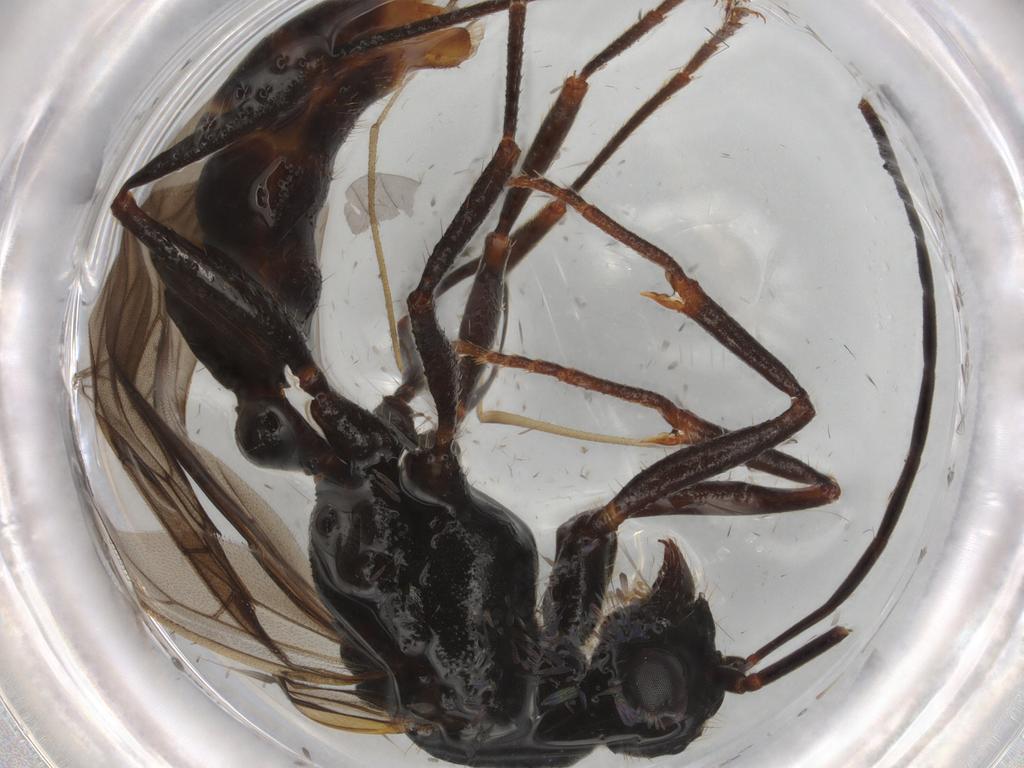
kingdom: Animalia
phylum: Arthropoda
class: Insecta
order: Hymenoptera
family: Formicidae
